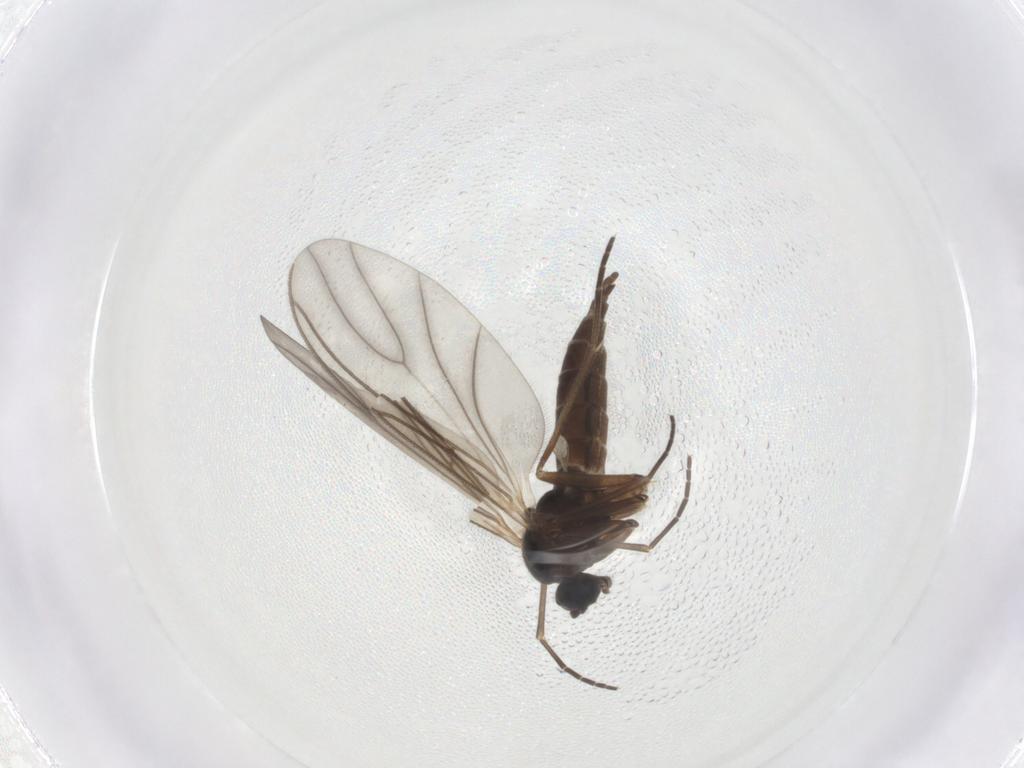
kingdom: Animalia
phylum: Arthropoda
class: Insecta
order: Diptera
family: Sciaridae
